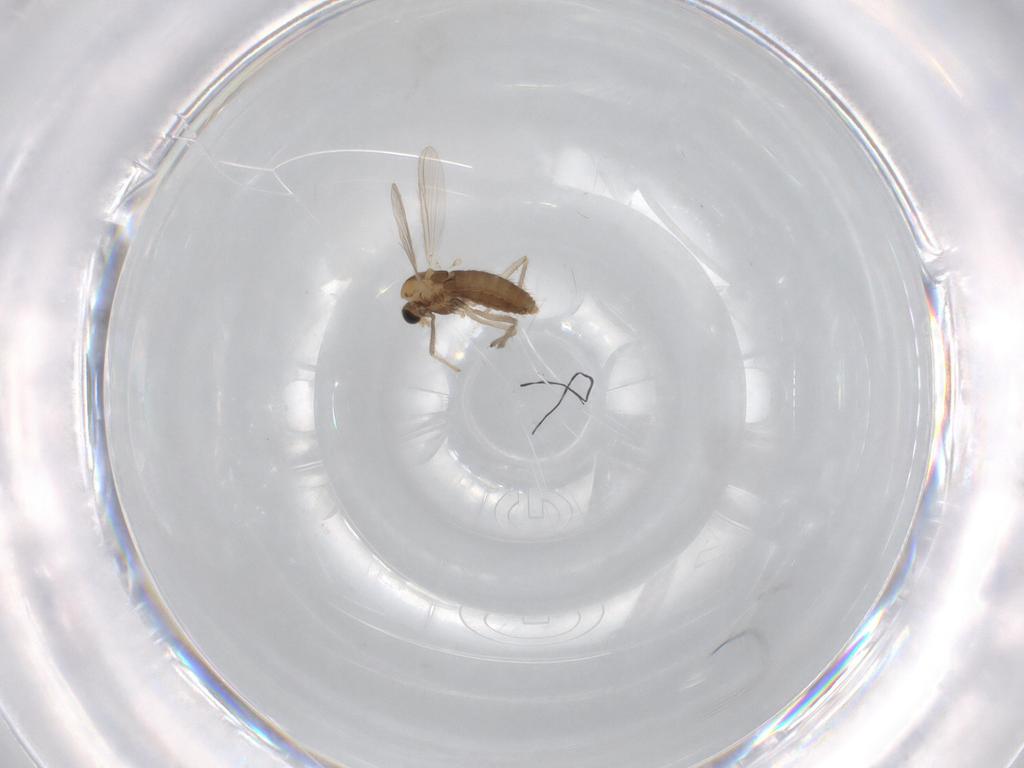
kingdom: Animalia
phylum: Arthropoda
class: Insecta
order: Diptera
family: Chironomidae
